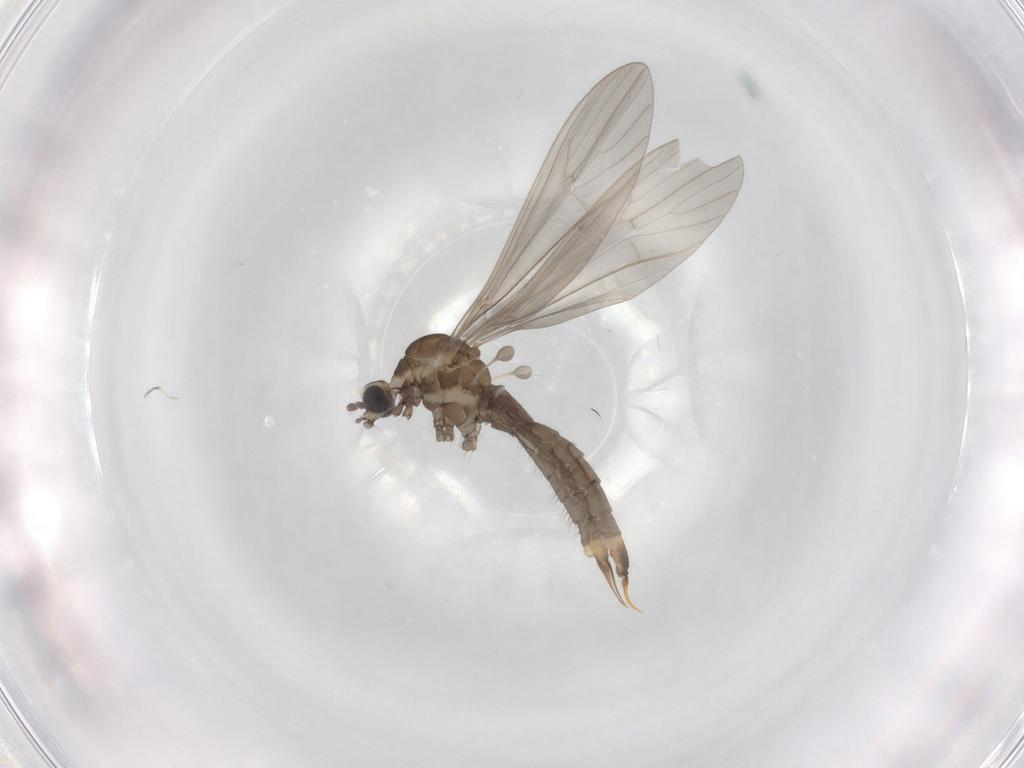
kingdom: Animalia
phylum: Arthropoda
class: Insecta
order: Diptera
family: Limoniidae
